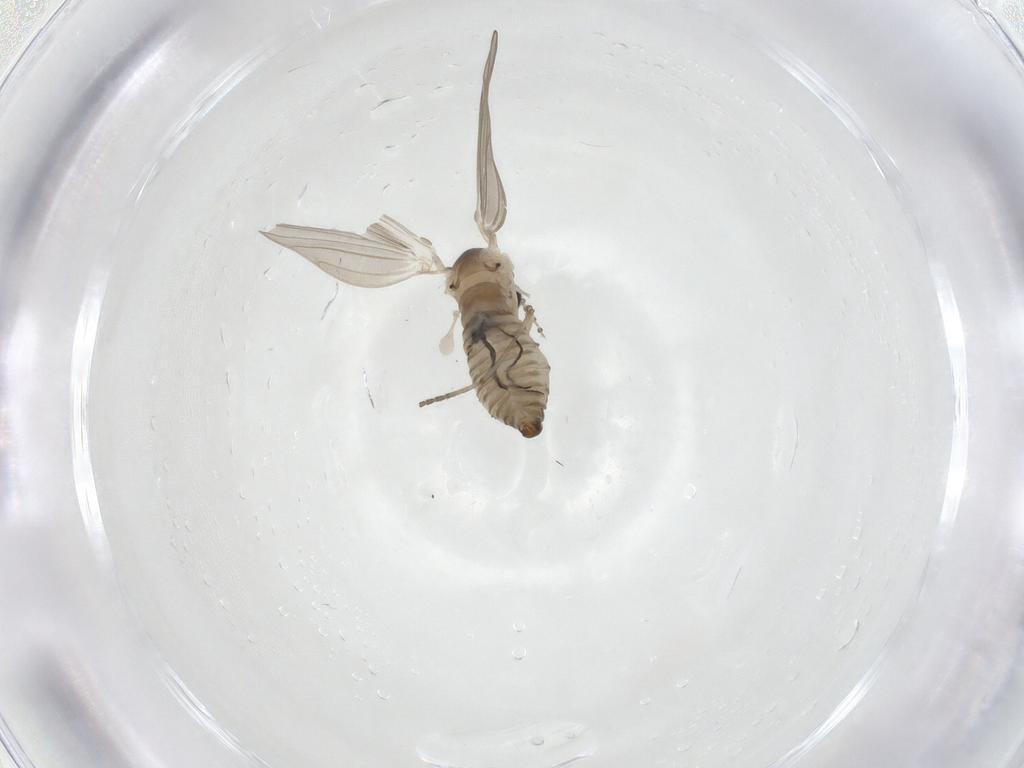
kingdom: Animalia
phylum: Arthropoda
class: Insecta
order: Diptera
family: Psychodidae
